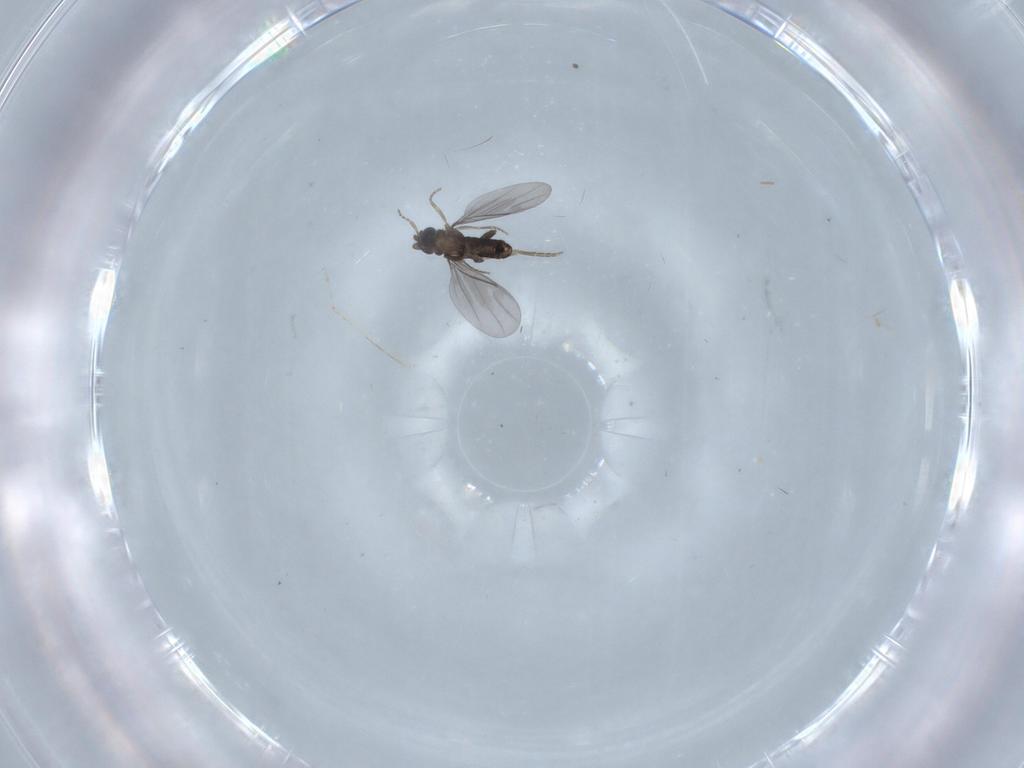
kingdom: Animalia
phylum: Arthropoda
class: Insecta
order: Diptera
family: Cecidomyiidae
